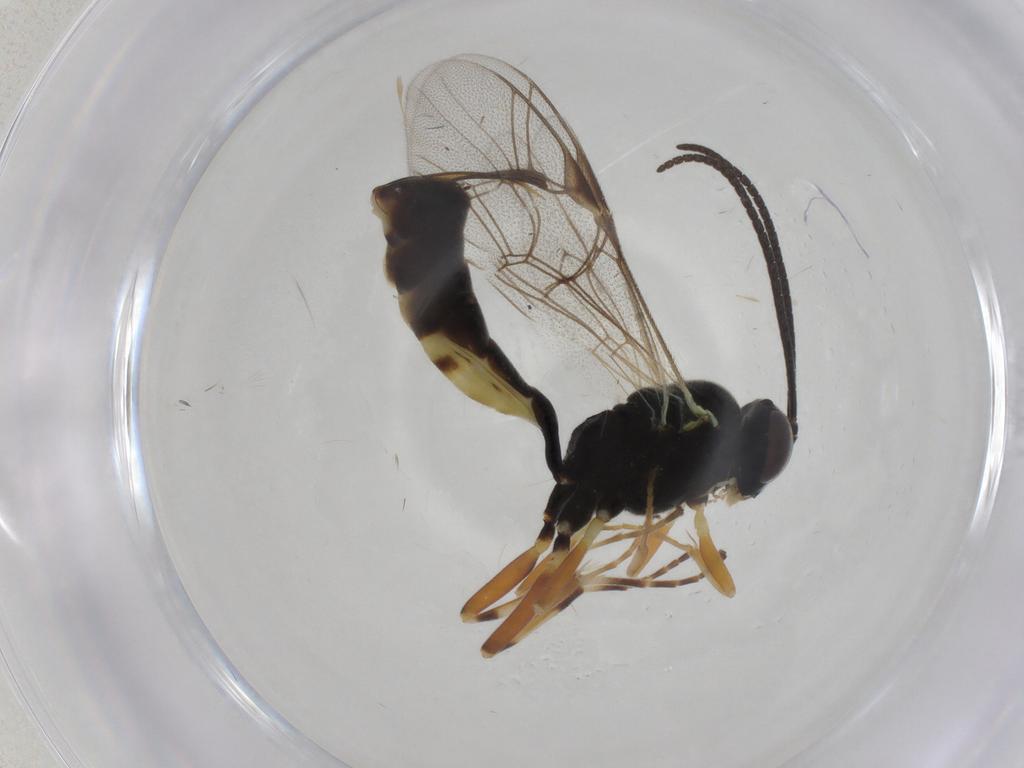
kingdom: Animalia
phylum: Arthropoda
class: Insecta
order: Hymenoptera
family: Ichneumonidae
